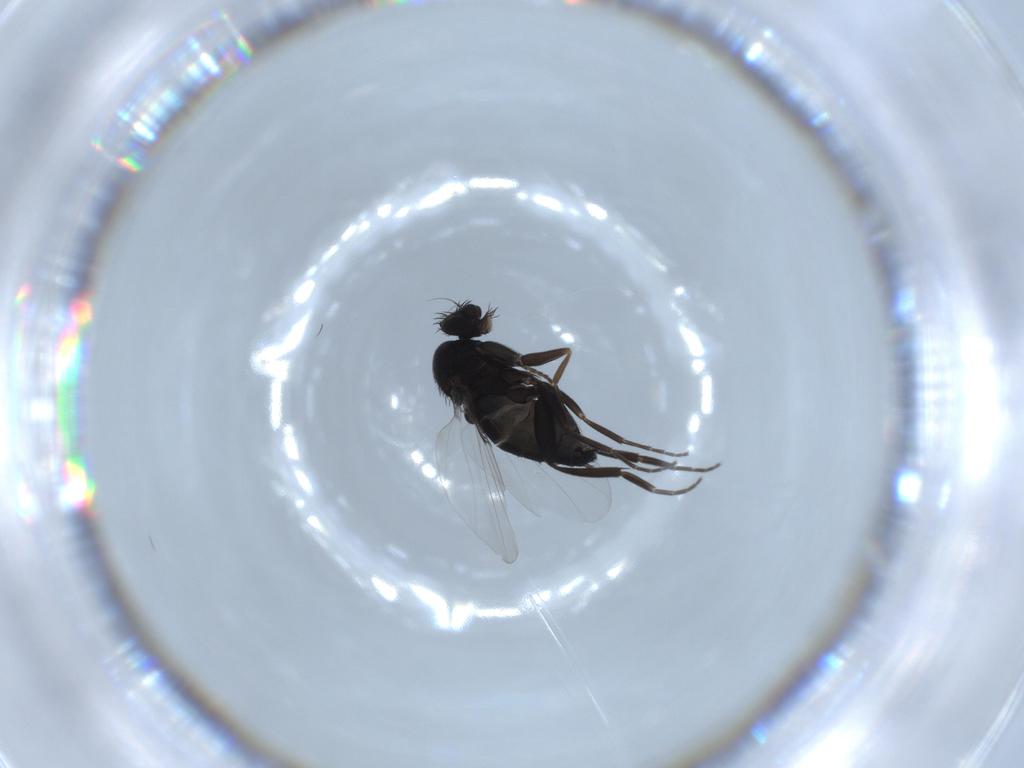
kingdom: Animalia
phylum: Arthropoda
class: Insecta
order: Diptera
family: Phoridae
